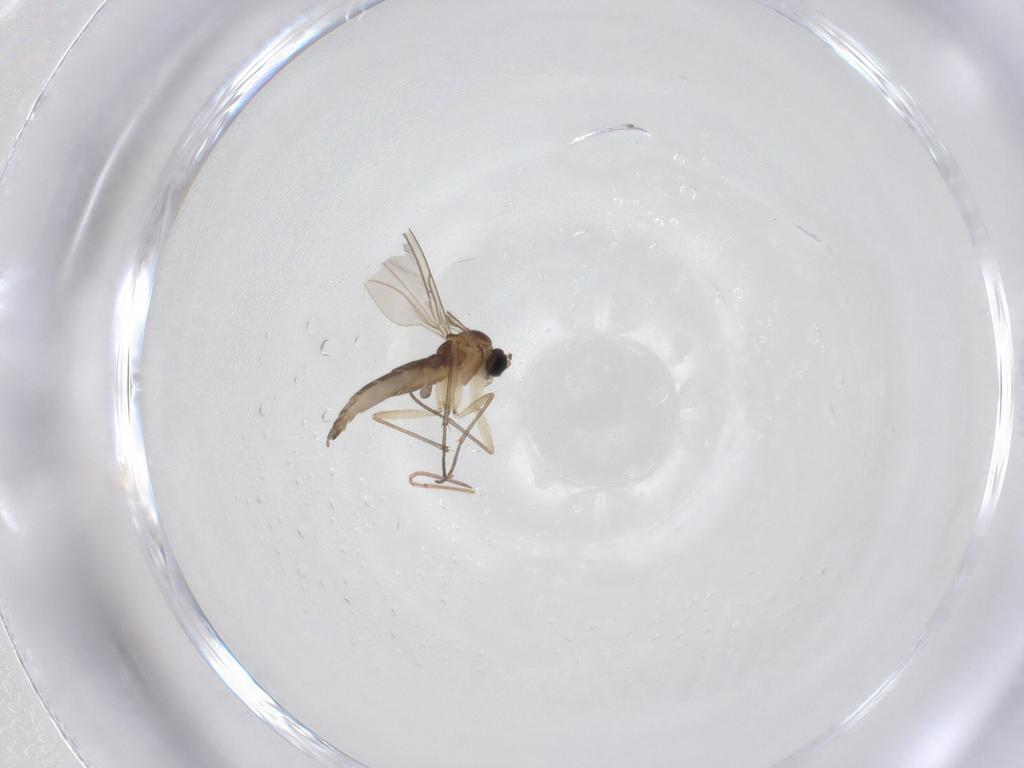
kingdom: Animalia
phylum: Arthropoda
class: Insecta
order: Diptera
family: Sciaridae
